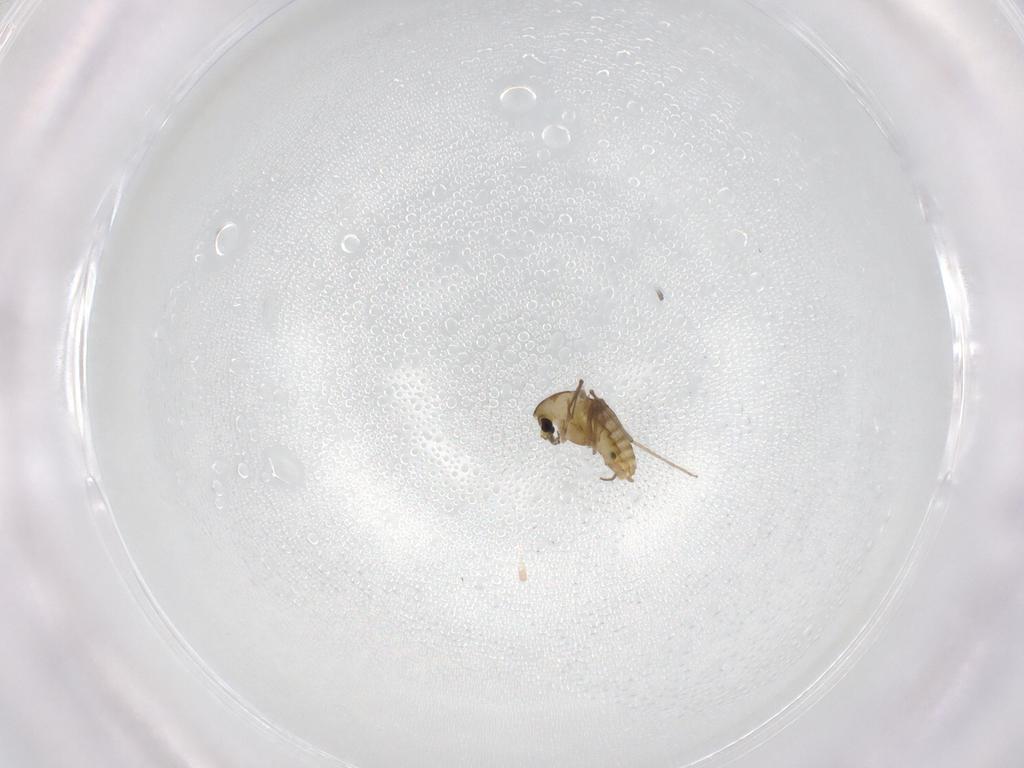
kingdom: Animalia
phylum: Arthropoda
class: Insecta
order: Diptera
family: Chironomidae
